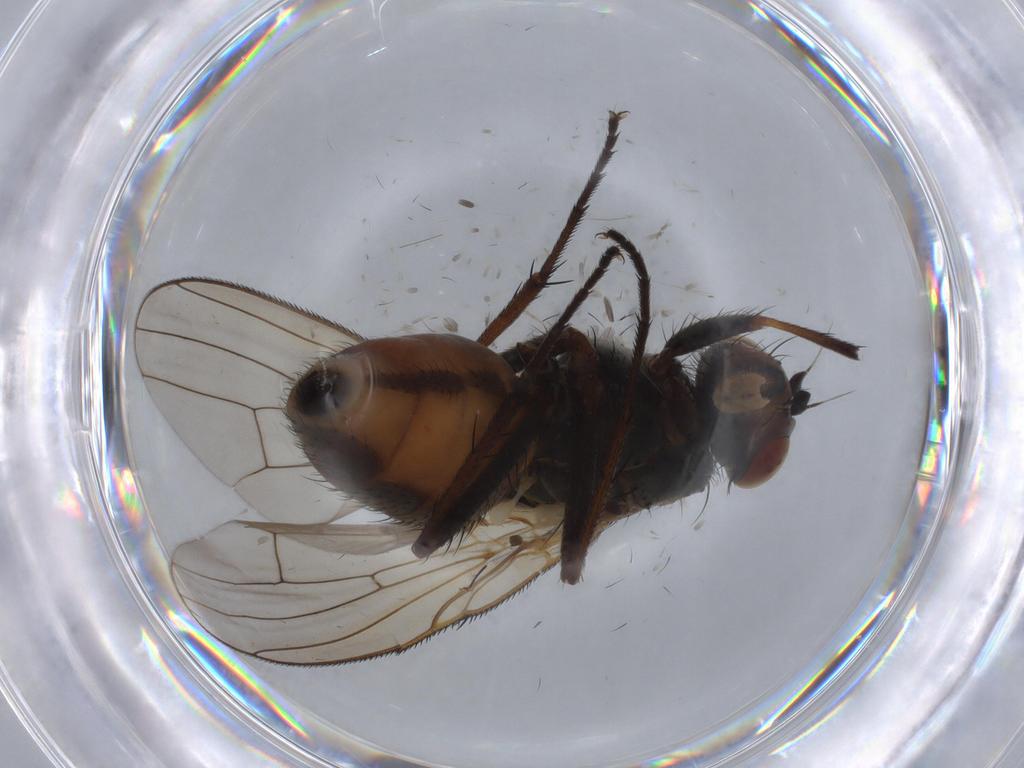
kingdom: Animalia
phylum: Arthropoda
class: Insecta
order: Diptera
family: Anthomyiidae
